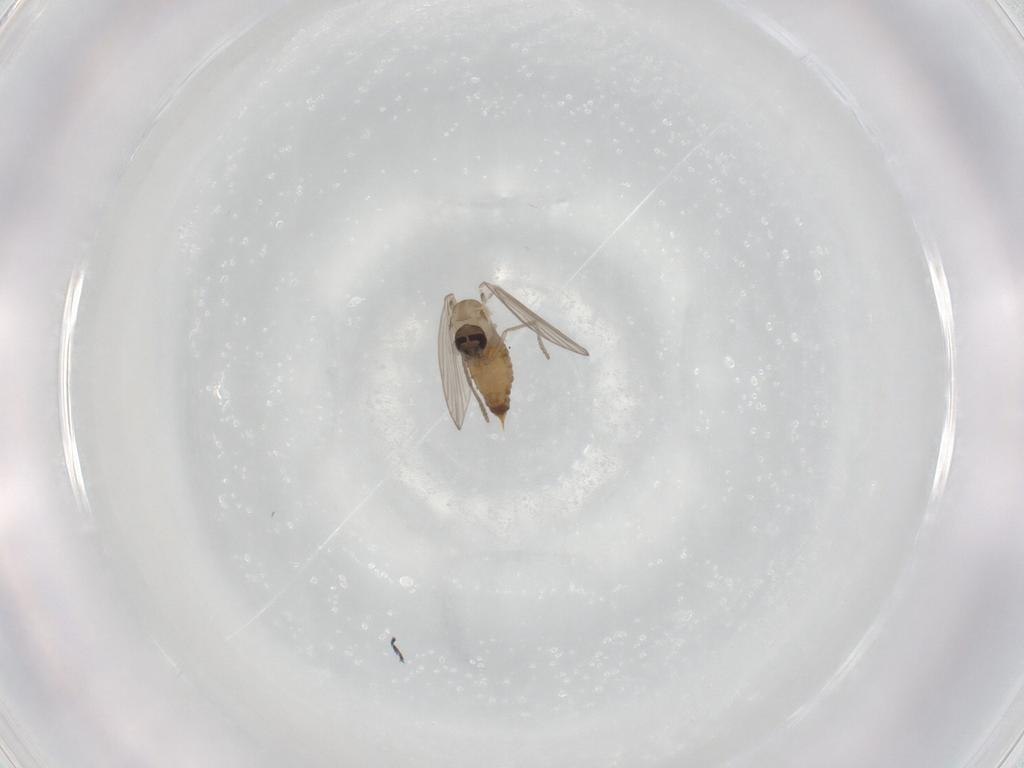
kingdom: Animalia
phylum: Arthropoda
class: Insecta
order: Diptera
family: Psychodidae
